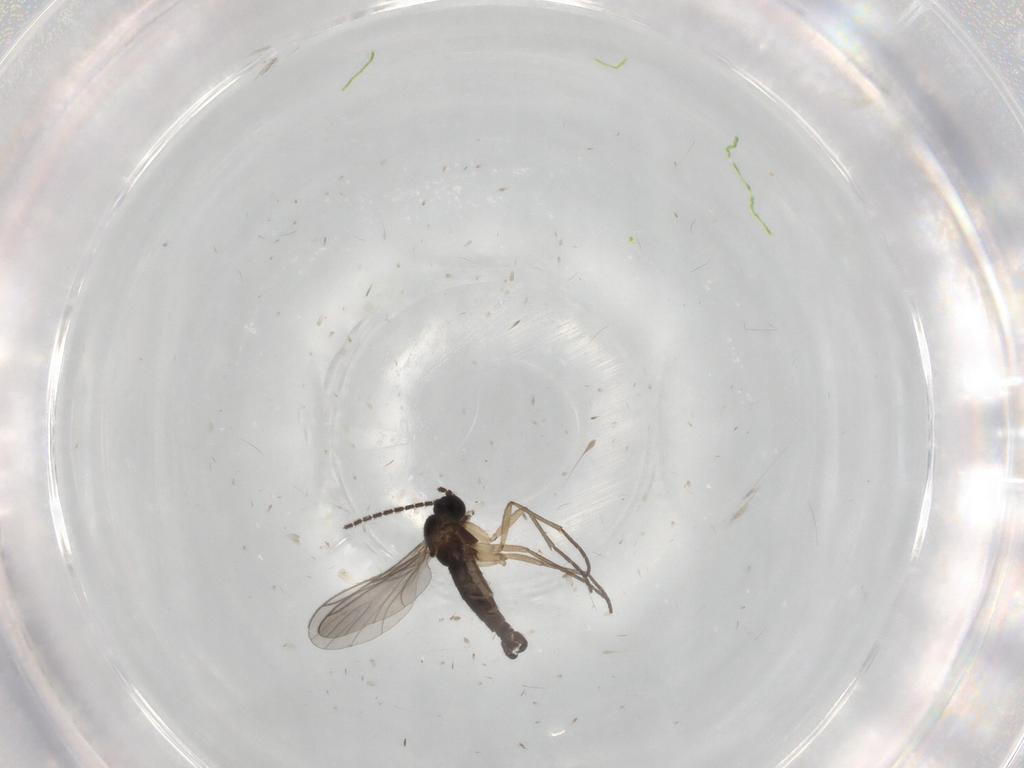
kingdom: Animalia
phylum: Arthropoda
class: Insecta
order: Diptera
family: Sciaridae
